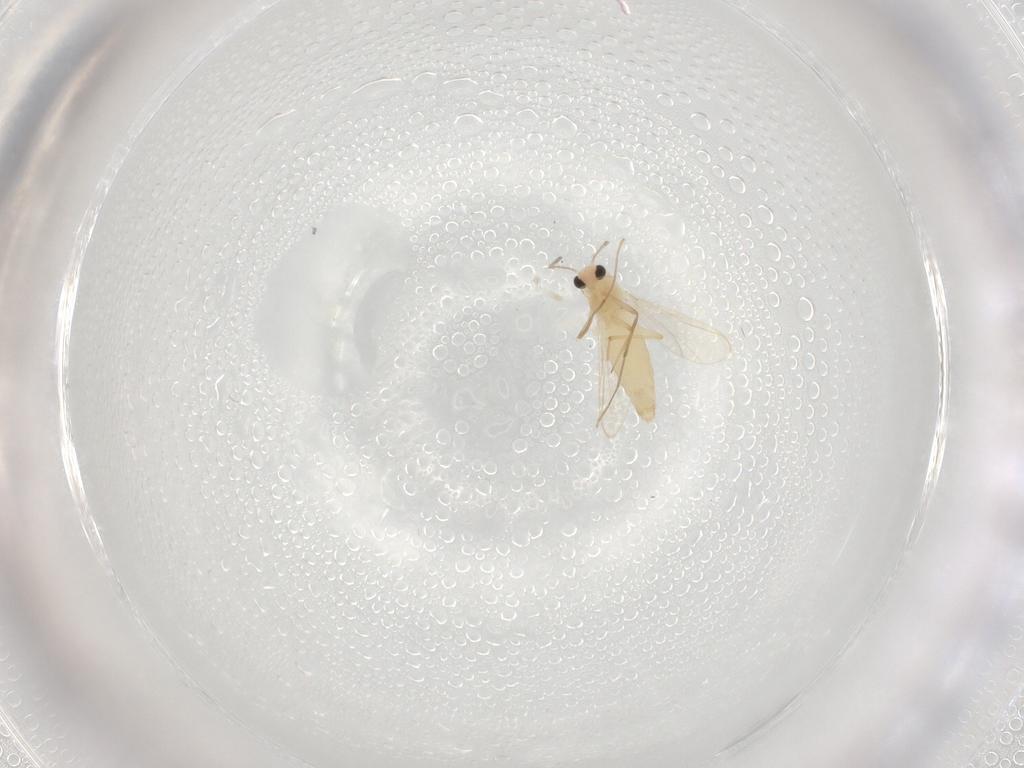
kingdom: Animalia
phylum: Arthropoda
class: Insecta
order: Diptera
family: Chironomidae
